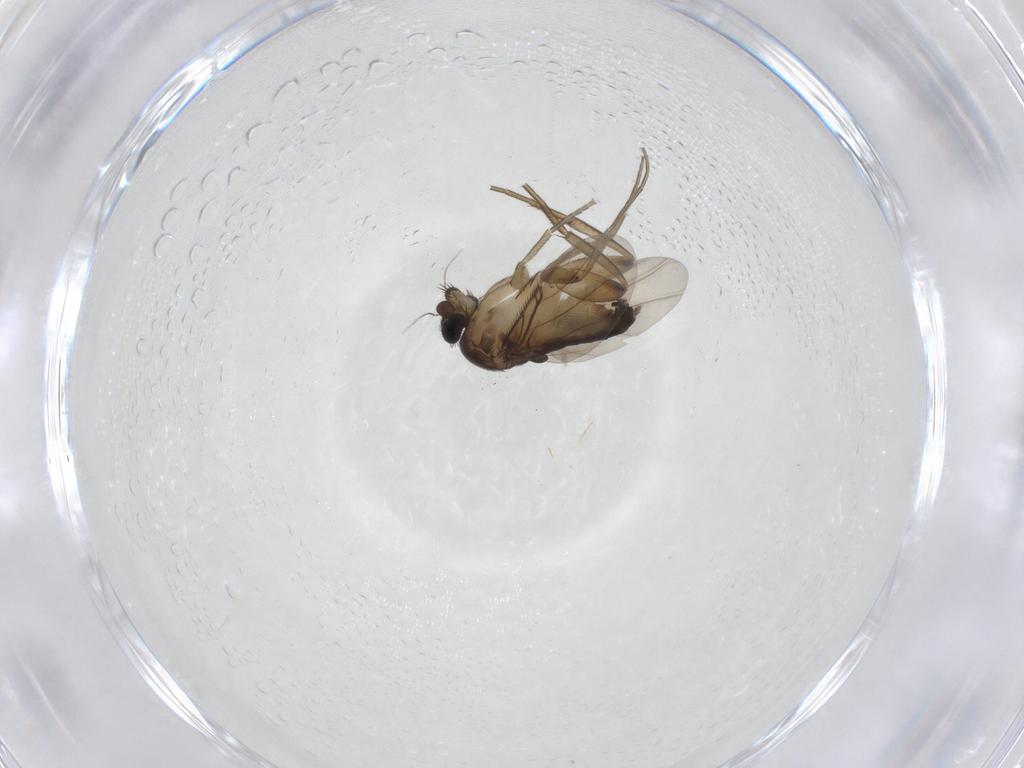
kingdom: Animalia
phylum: Arthropoda
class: Insecta
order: Diptera
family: Phoridae
